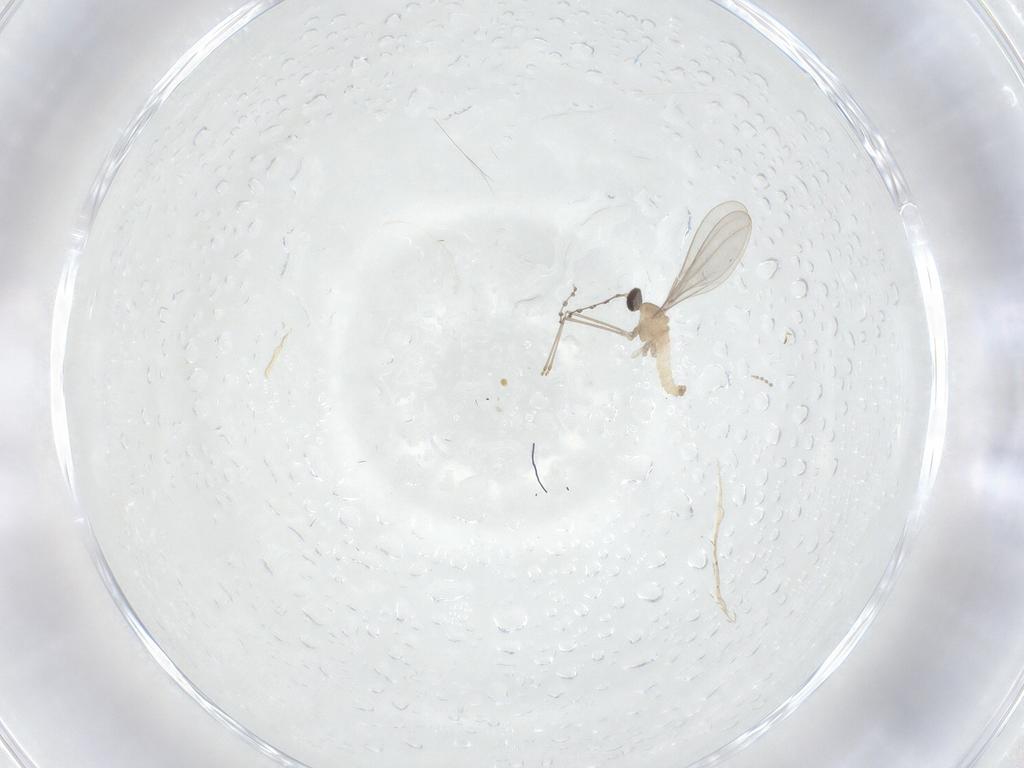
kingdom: Animalia
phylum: Arthropoda
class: Insecta
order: Diptera
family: Cecidomyiidae
